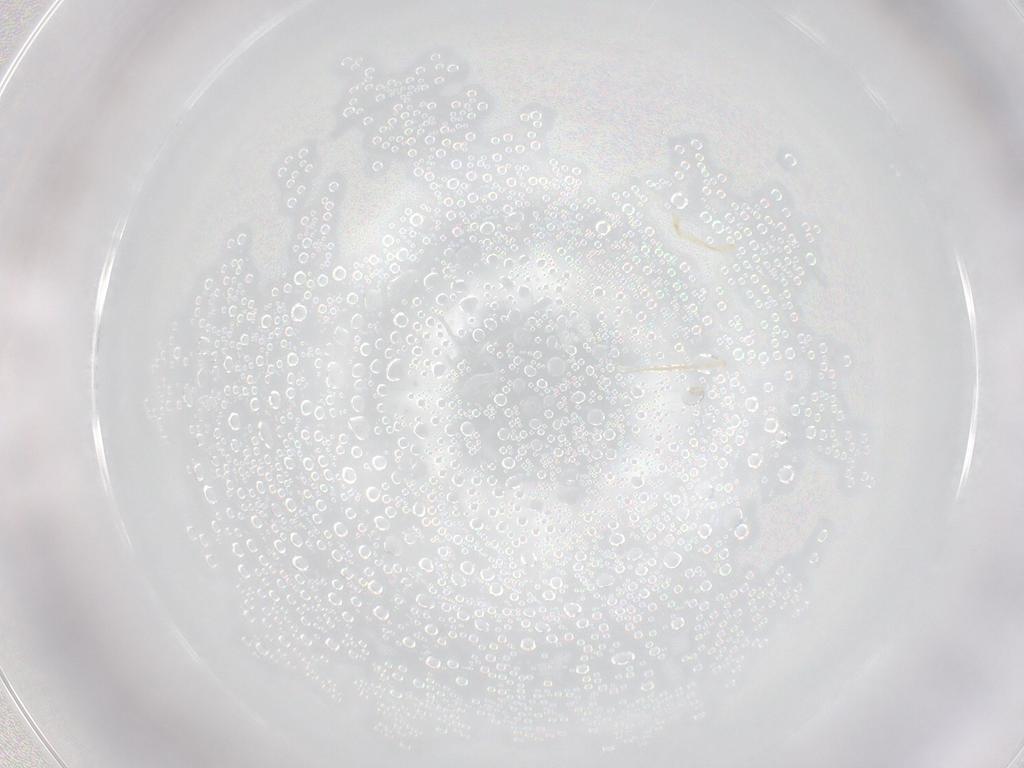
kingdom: Animalia
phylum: Arthropoda
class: Insecta
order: Lepidoptera
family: Gelechiidae
